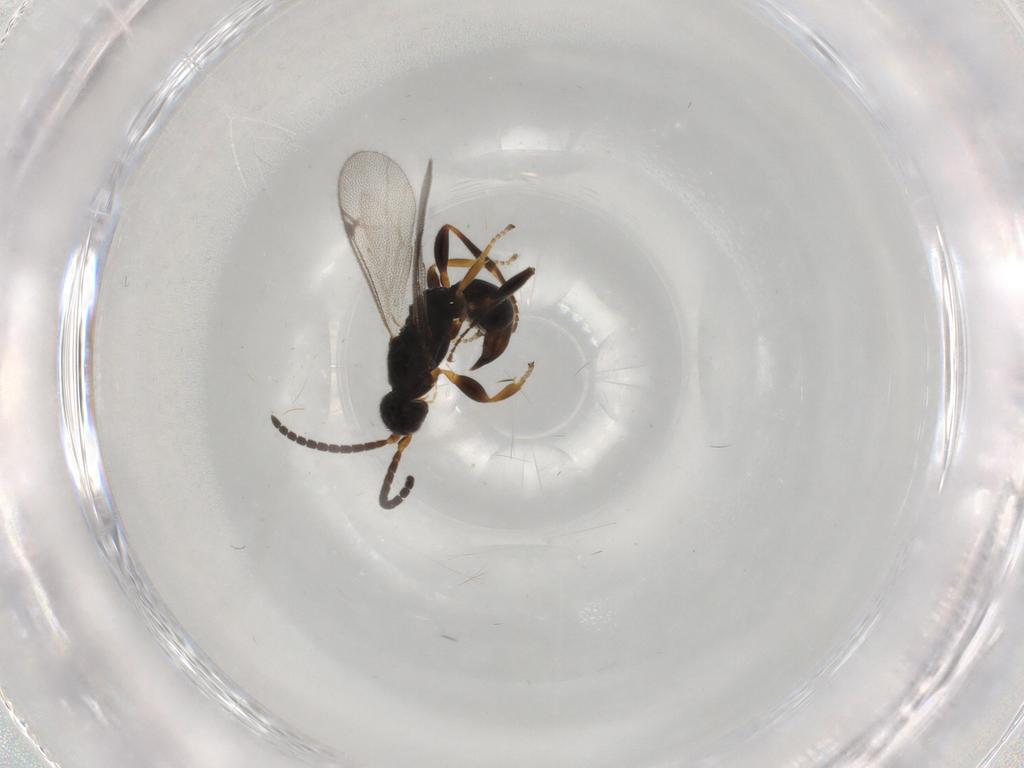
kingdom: Animalia
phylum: Arthropoda
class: Insecta
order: Hymenoptera
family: Proctotrupidae
